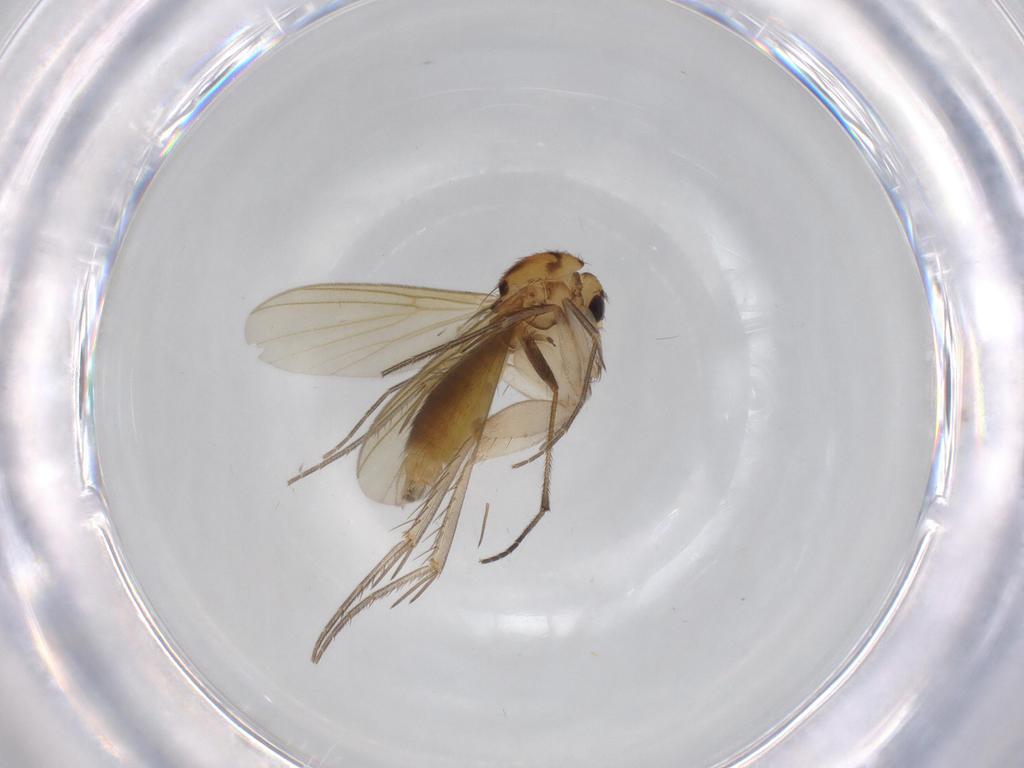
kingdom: Animalia
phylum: Arthropoda
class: Insecta
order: Diptera
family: Mycetophilidae
